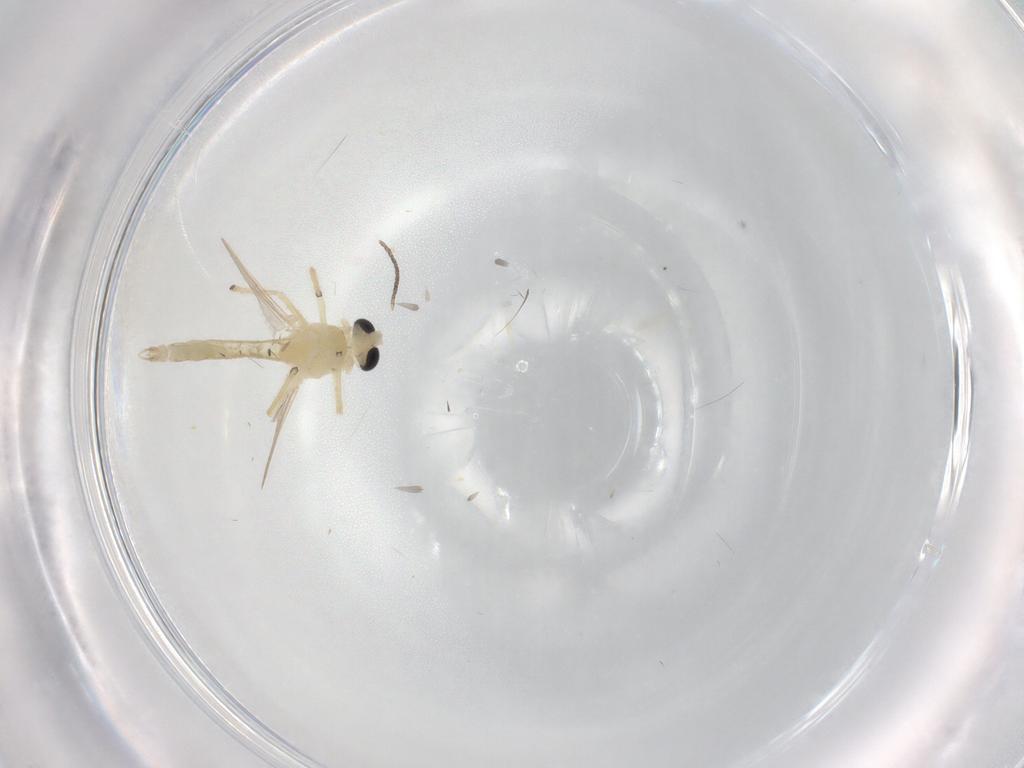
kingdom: Animalia
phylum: Arthropoda
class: Insecta
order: Diptera
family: Chironomidae
